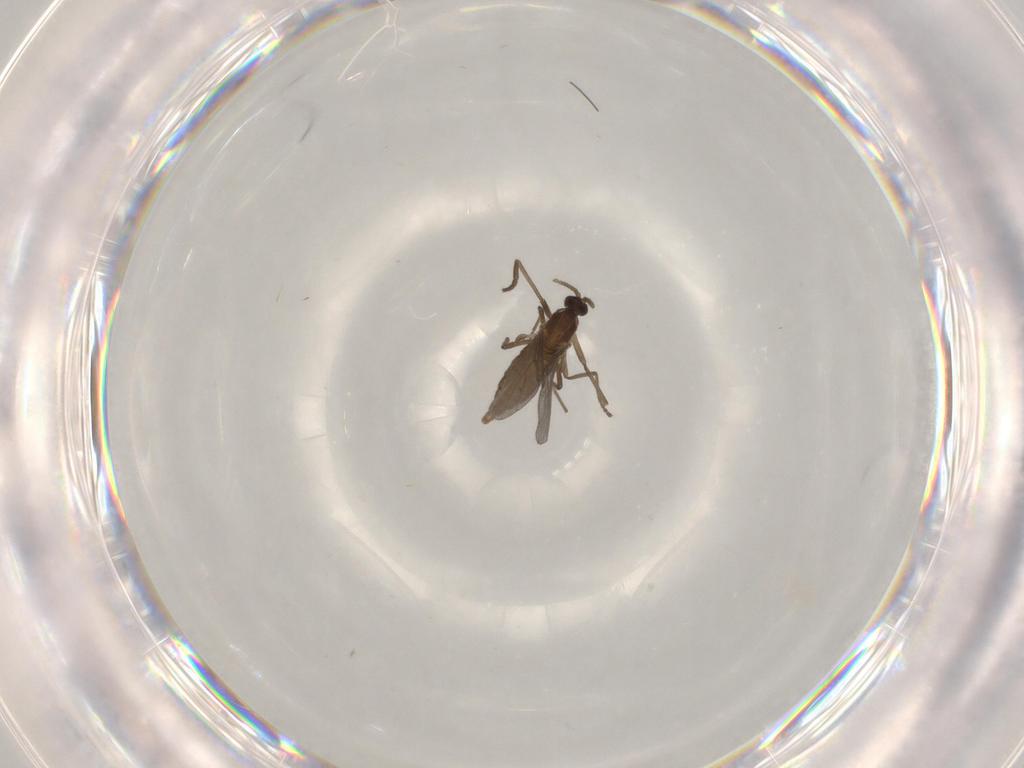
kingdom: Animalia
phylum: Arthropoda
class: Insecta
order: Diptera
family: Cecidomyiidae
